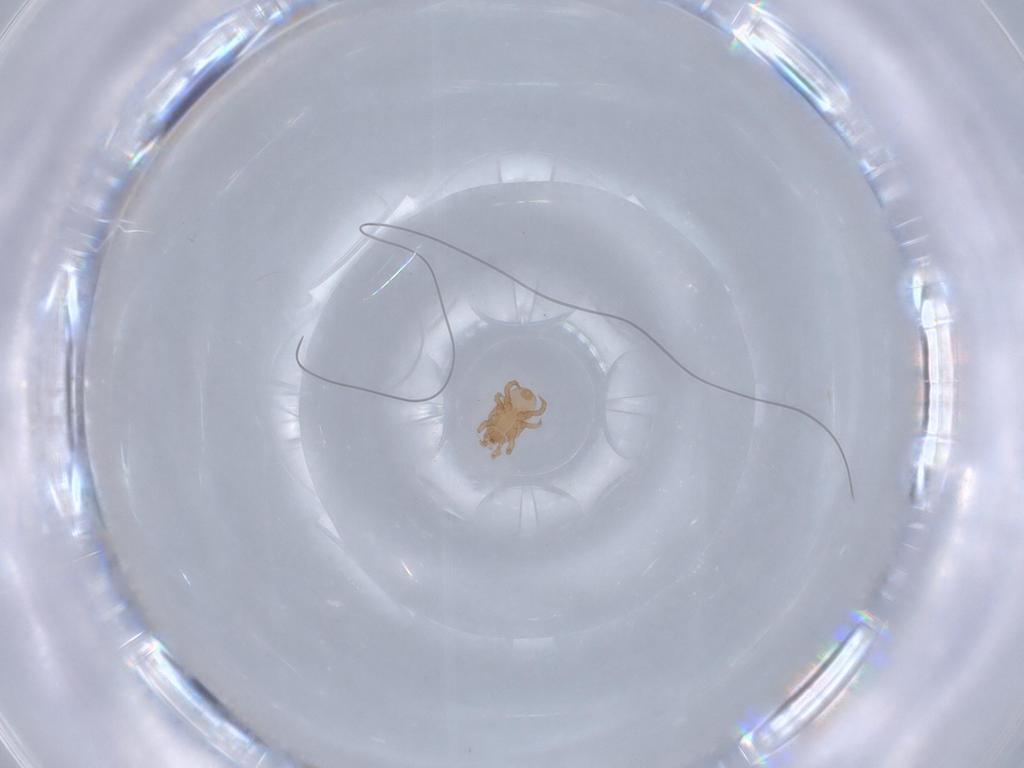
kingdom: Animalia
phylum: Arthropoda
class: Arachnida
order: Mesostigmata
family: Halolaelapidae
